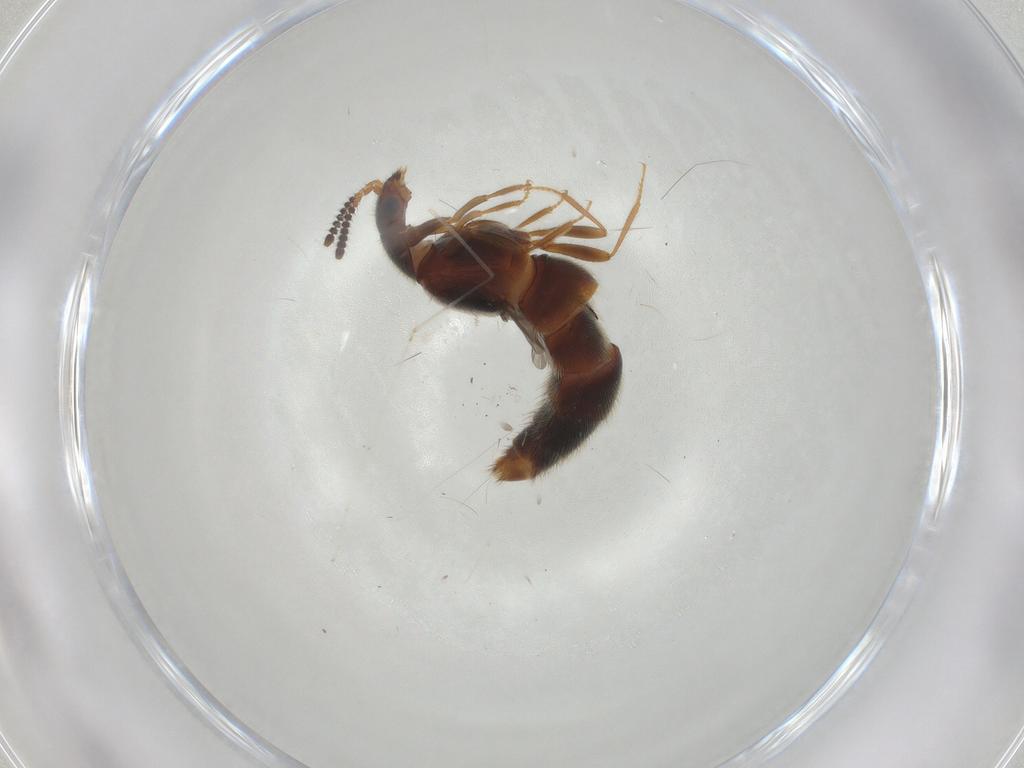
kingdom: Animalia
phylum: Arthropoda
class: Insecta
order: Coleoptera
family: Staphylinidae
